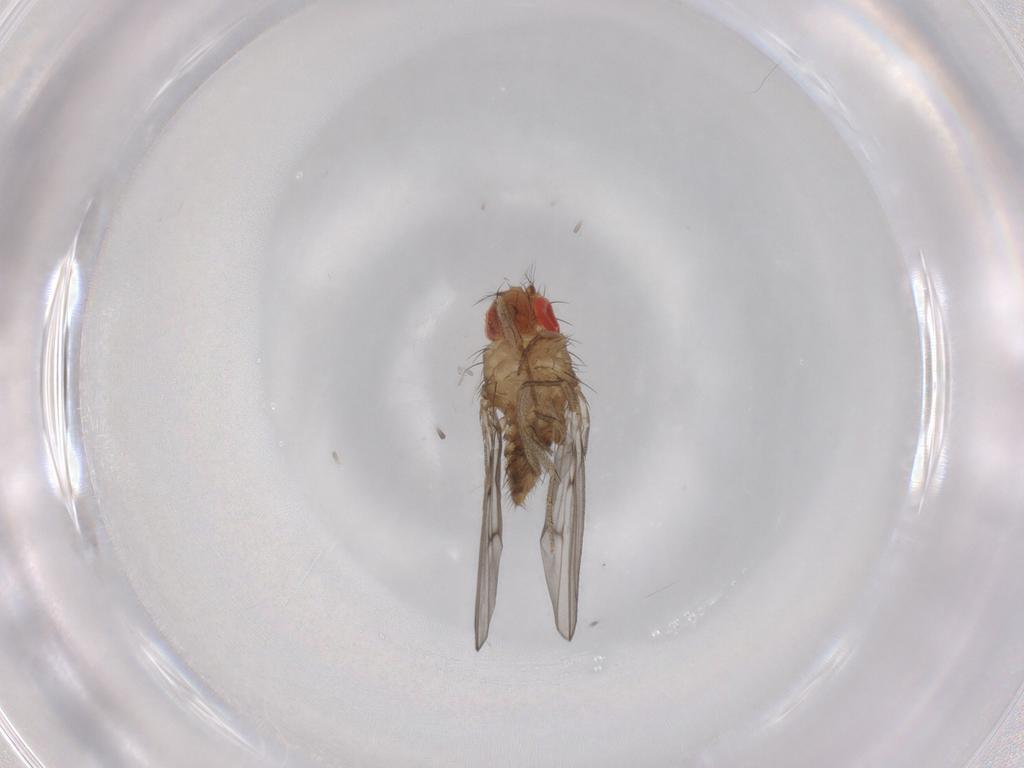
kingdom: Animalia
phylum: Arthropoda
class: Insecta
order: Diptera
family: Drosophilidae
